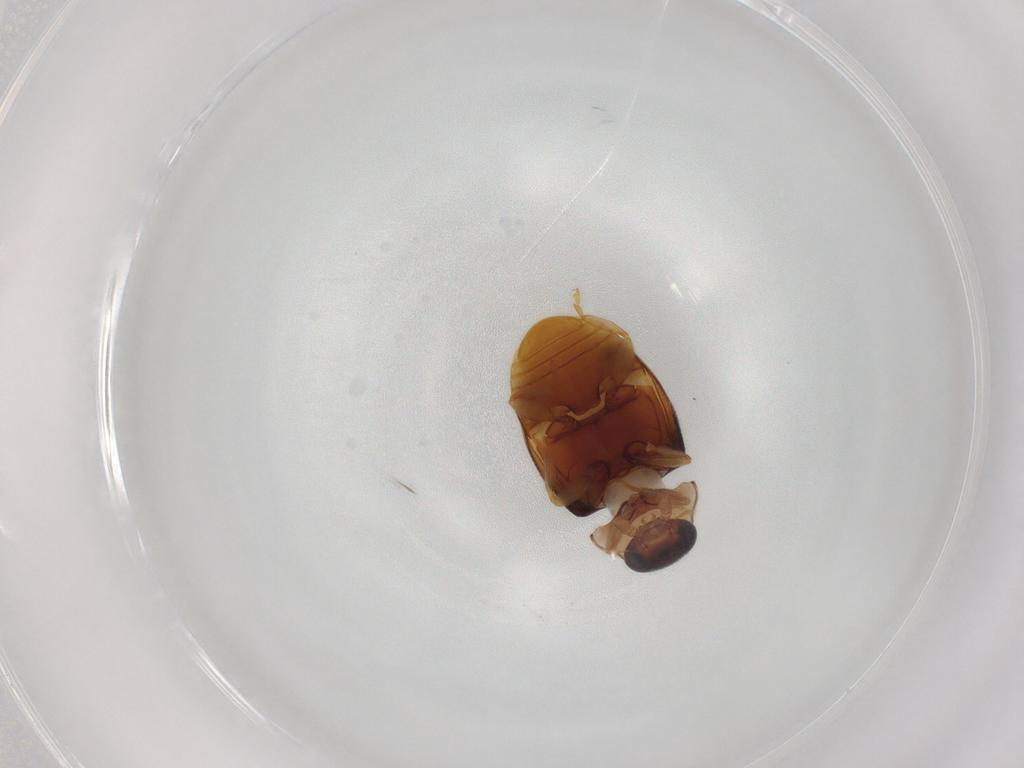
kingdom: Animalia
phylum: Arthropoda
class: Insecta
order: Coleoptera
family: Coccinellidae
